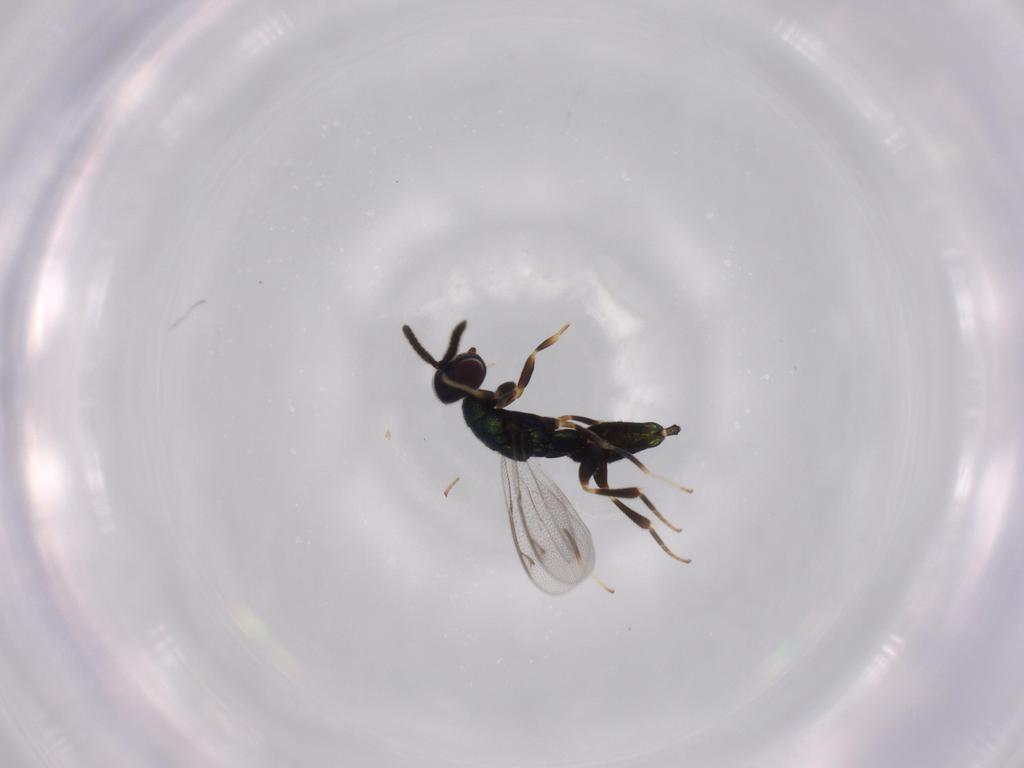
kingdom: Animalia
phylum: Arthropoda
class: Insecta
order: Hymenoptera
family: Cleonyminae
